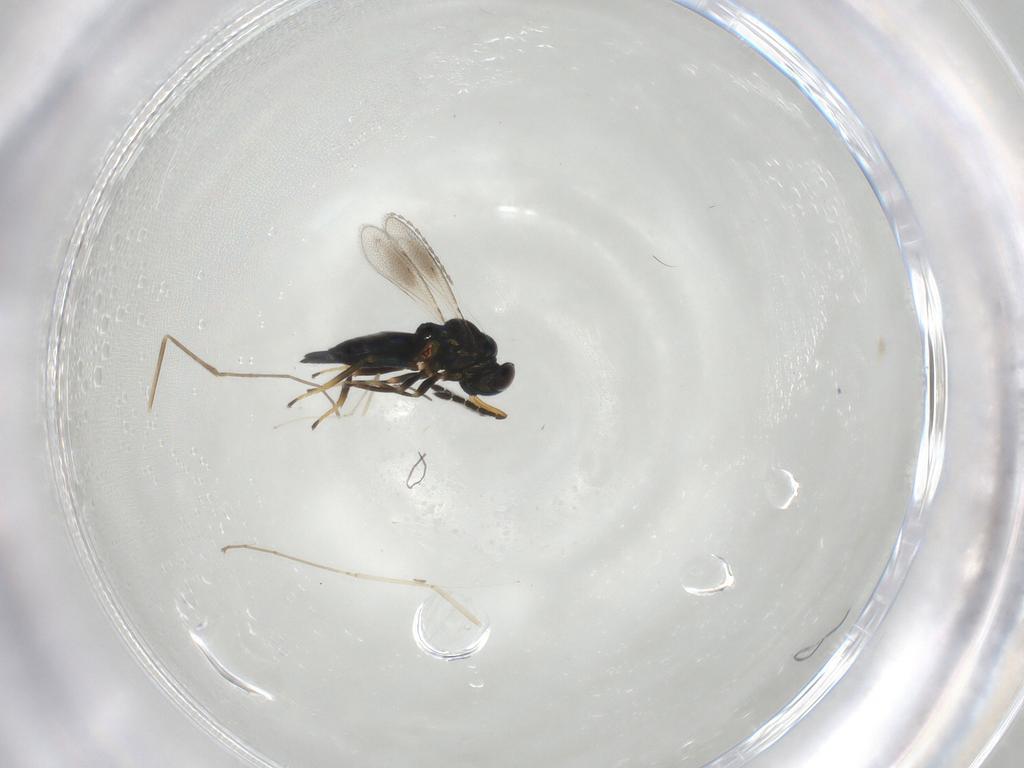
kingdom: Animalia
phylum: Arthropoda
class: Insecta
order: Hymenoptera
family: Eulophidae
